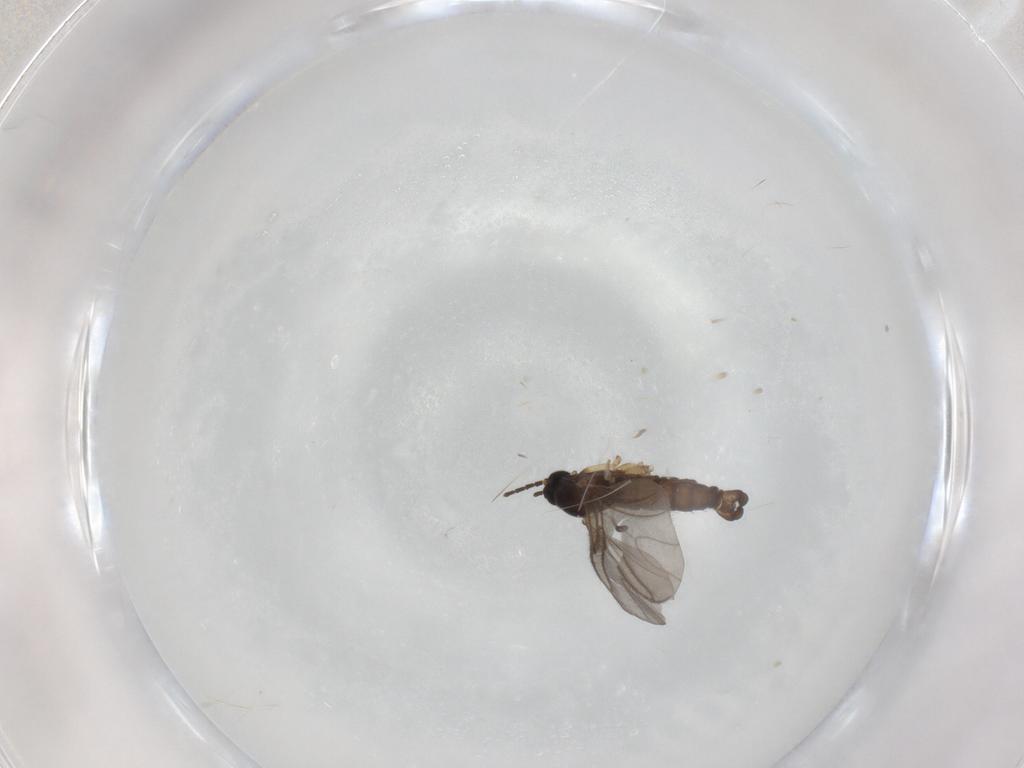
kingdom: Animalia
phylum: Arthropoda
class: Insecta
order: Diptera
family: Sciaridae
